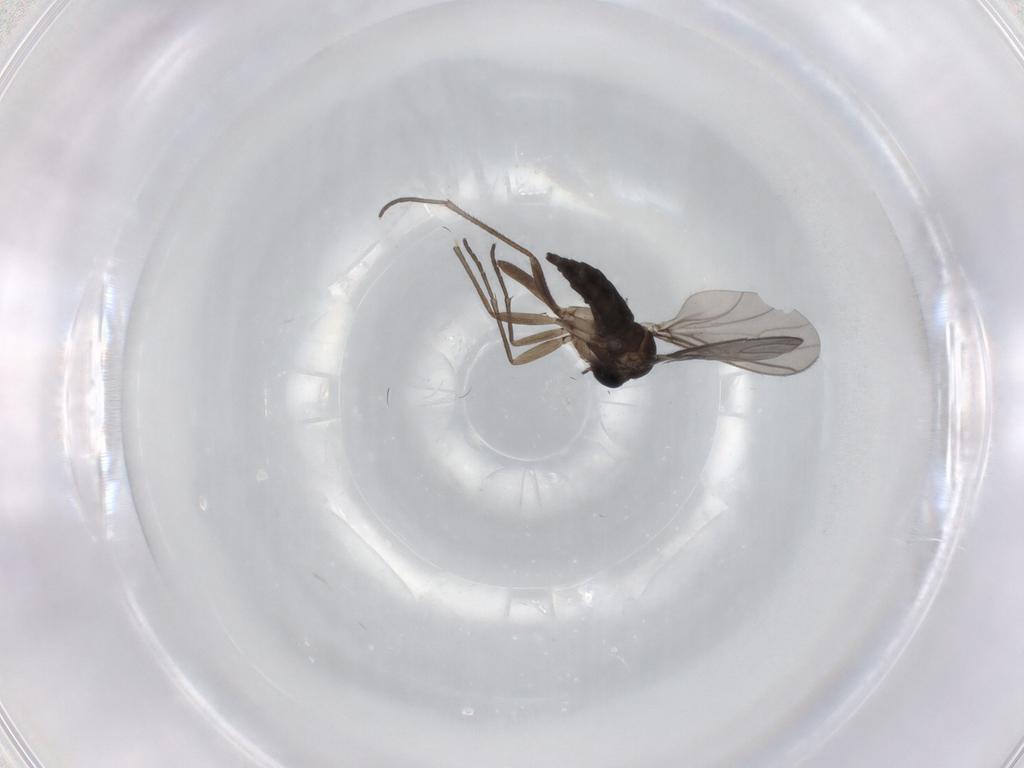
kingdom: Animalia
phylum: Arthropoda
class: Insecta
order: Diptera
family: Sciaridae
